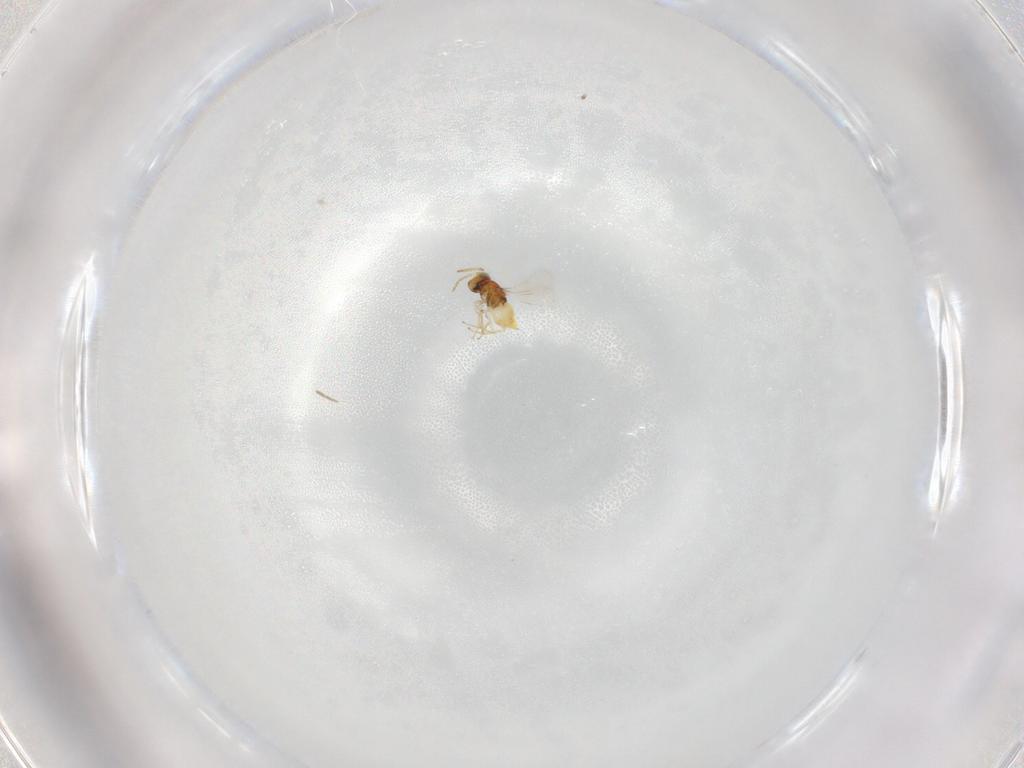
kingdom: Animalia
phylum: Arthropoda
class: Insecta
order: Hymenoptera
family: Aphelinidae
